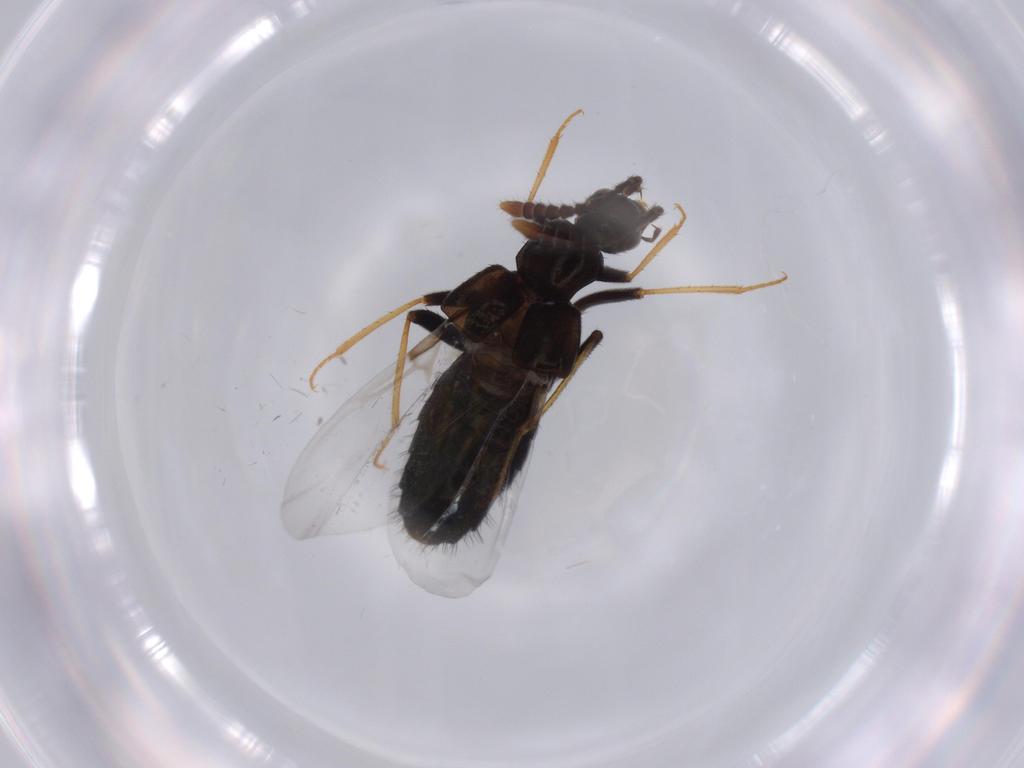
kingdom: Animalia
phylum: Arthropoda
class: Insecta
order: Coleoptera
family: Staphylinidae
